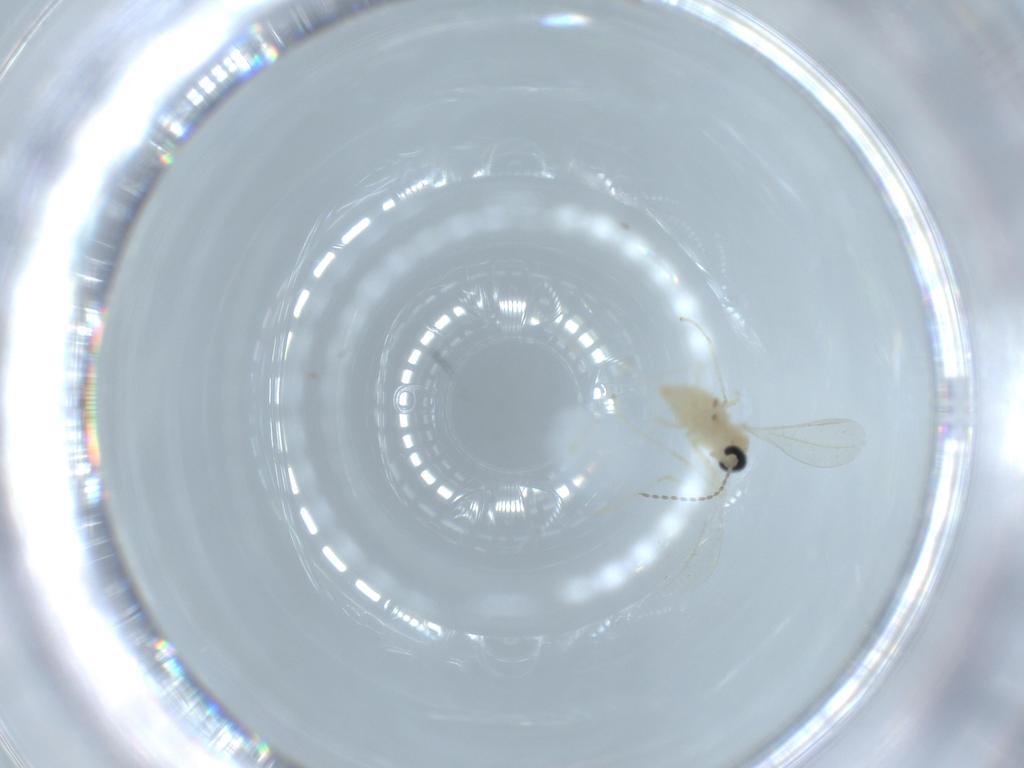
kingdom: Animalia
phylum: Arthropoda
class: Insecta
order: Diptera
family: Cecidomyiidae
